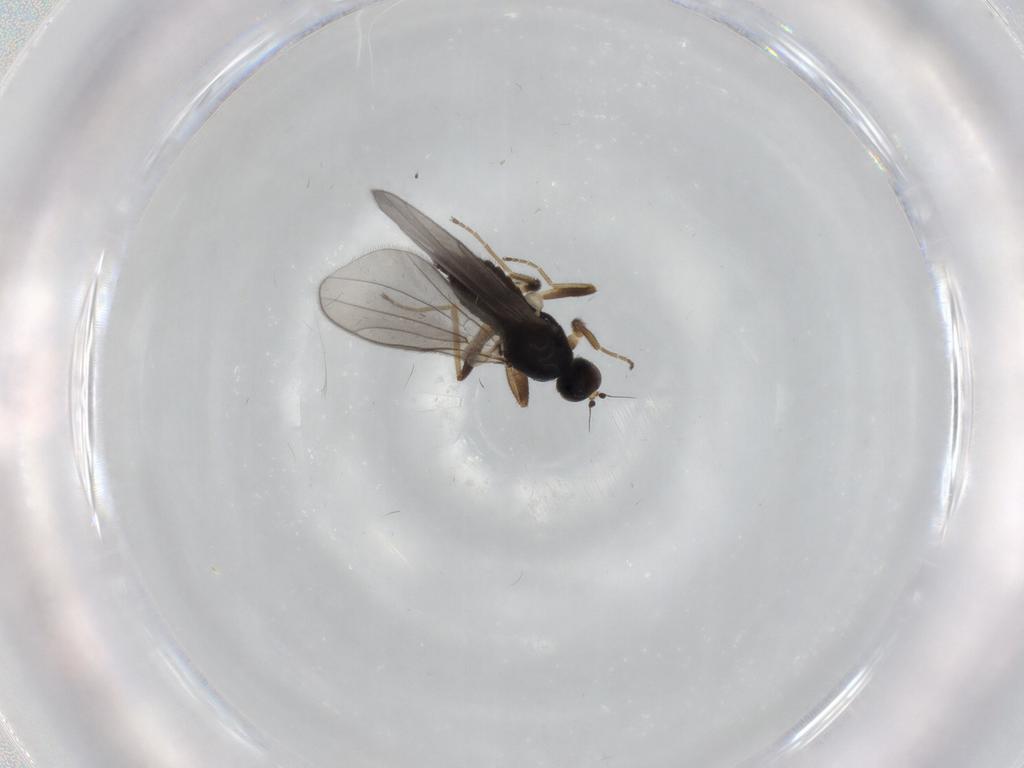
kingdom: Animalia
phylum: Arthropoda
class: Insecta
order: Diptera
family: Hybotidae
